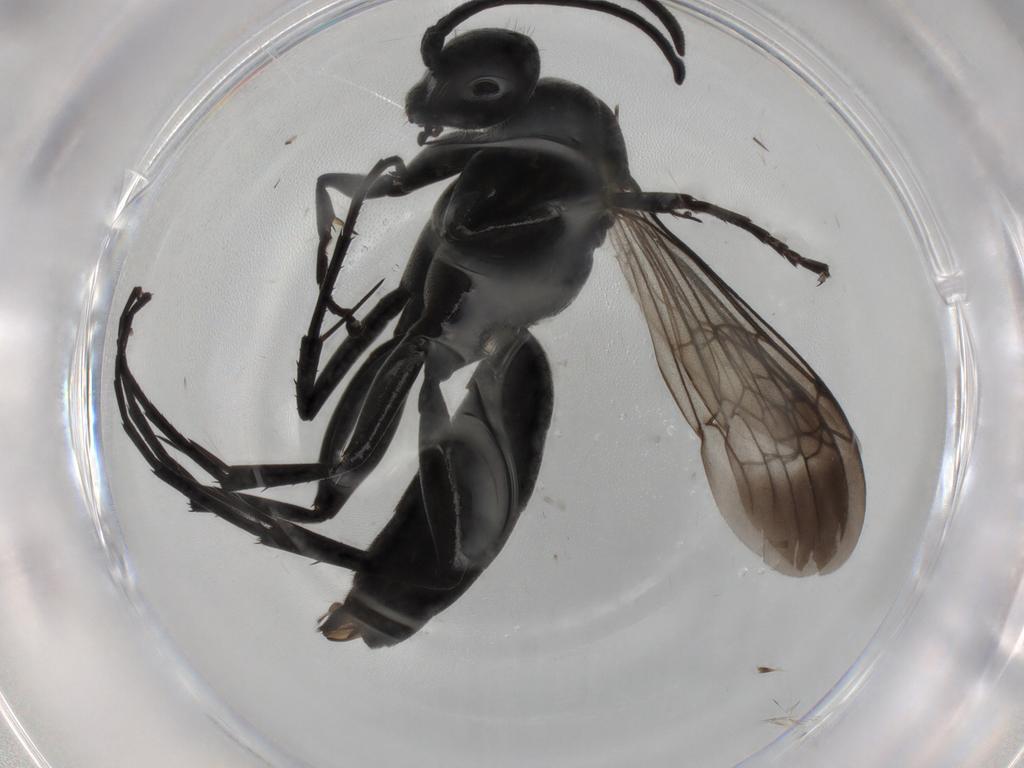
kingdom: Animalia
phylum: Arthropoda
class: Insecta
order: Hymenoptera
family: Pompilidae
